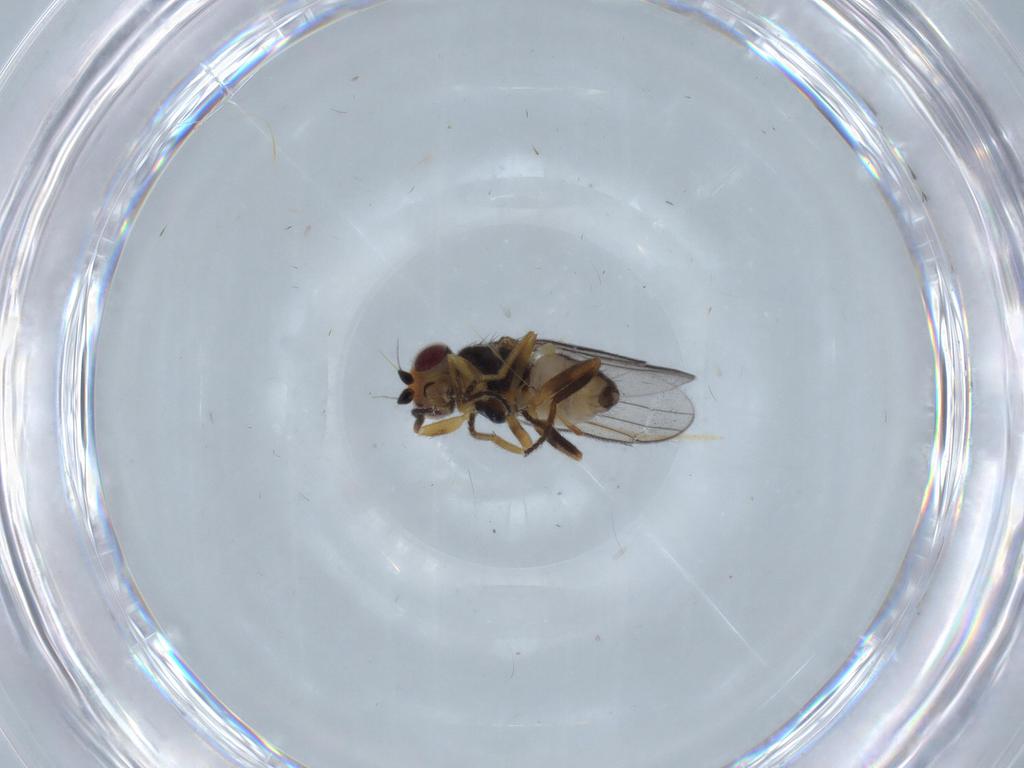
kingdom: Animalia
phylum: Arthropoda
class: Insecta
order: Diptera
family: Chloropidae
